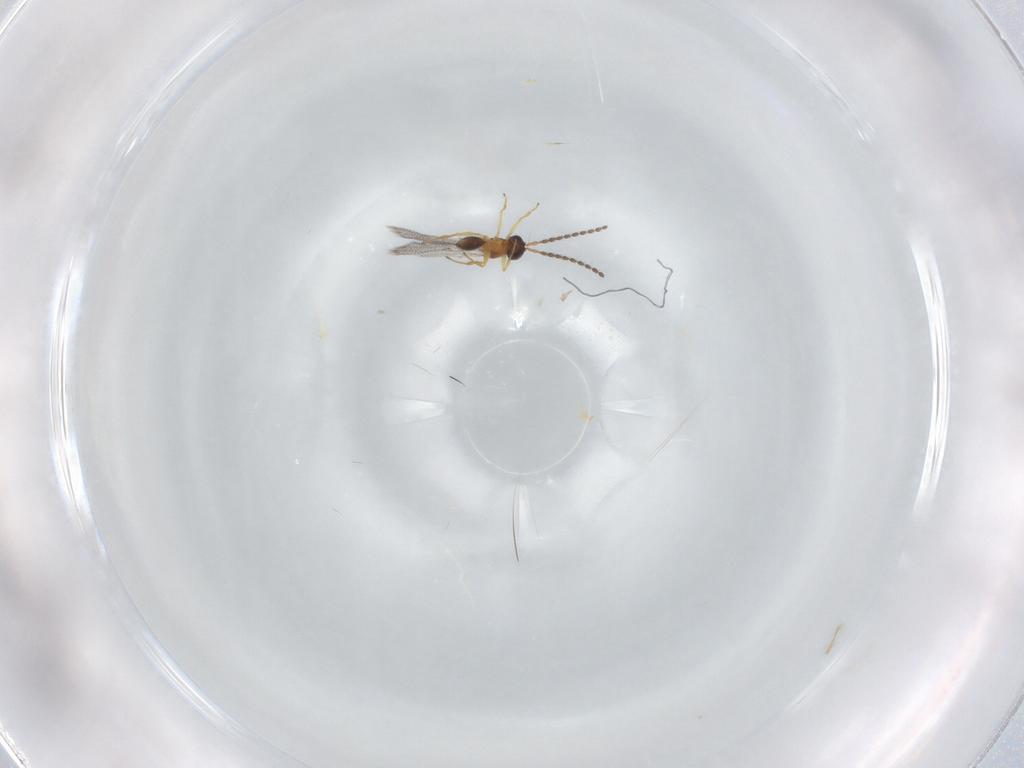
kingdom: Animalia
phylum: Arthropoda
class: Insecta
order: Hymenoptera
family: Figitidae
